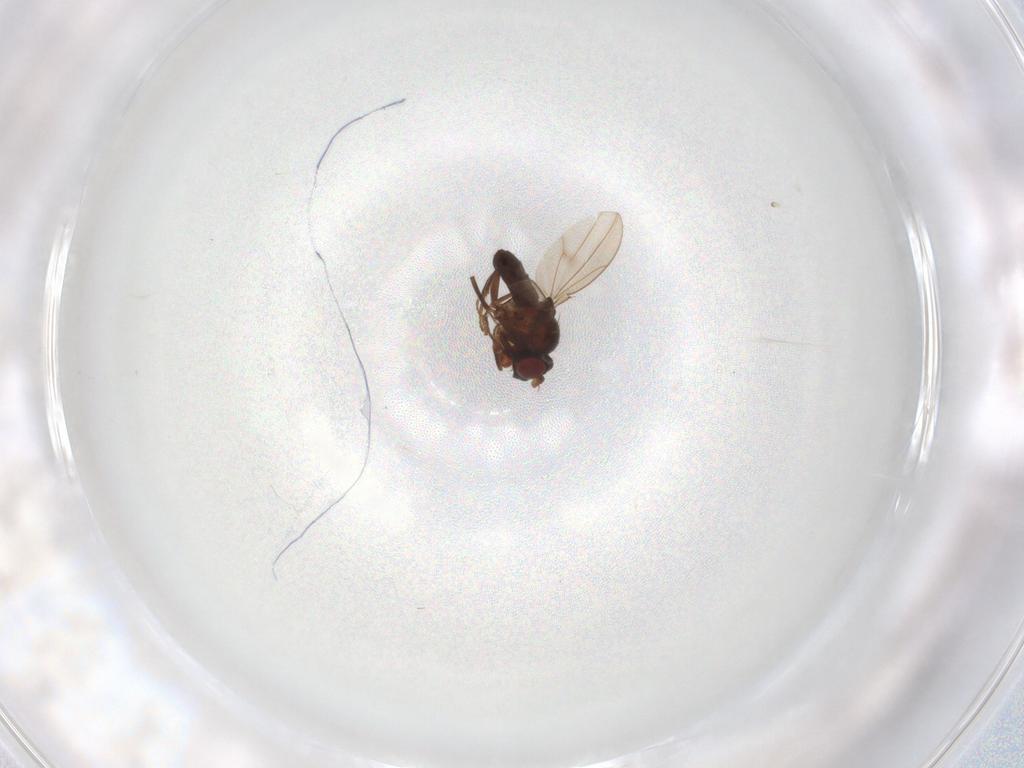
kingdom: Animalia
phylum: Arthropoda
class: Insecta
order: Diptera
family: Ephydridae
